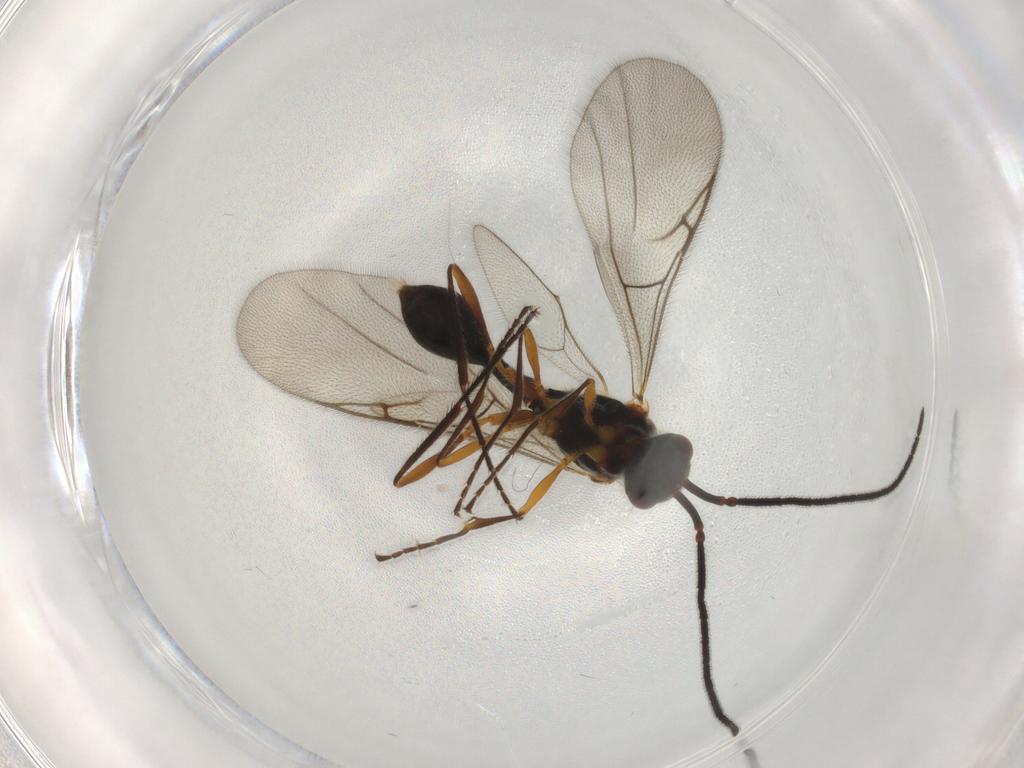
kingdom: Animalia
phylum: Arthropoda
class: Insecta
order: Hymenoptera
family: Diapriidae
